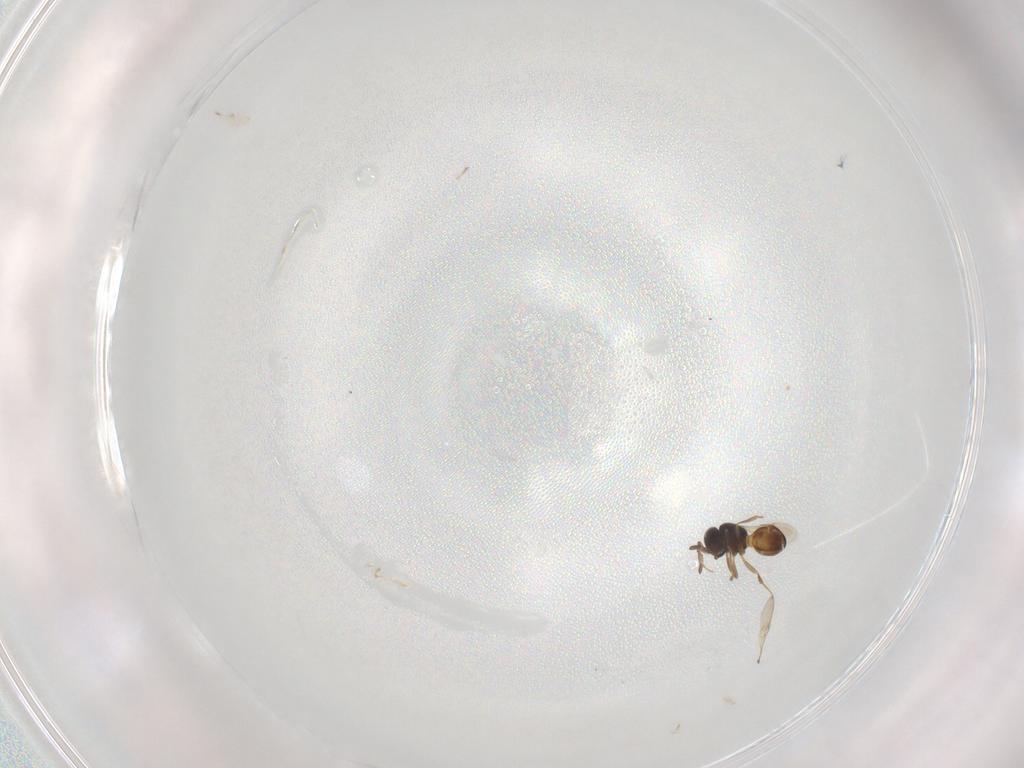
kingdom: Animalia
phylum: Arthropoda
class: Insecta
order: Hymenoptera
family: Scelionidae
